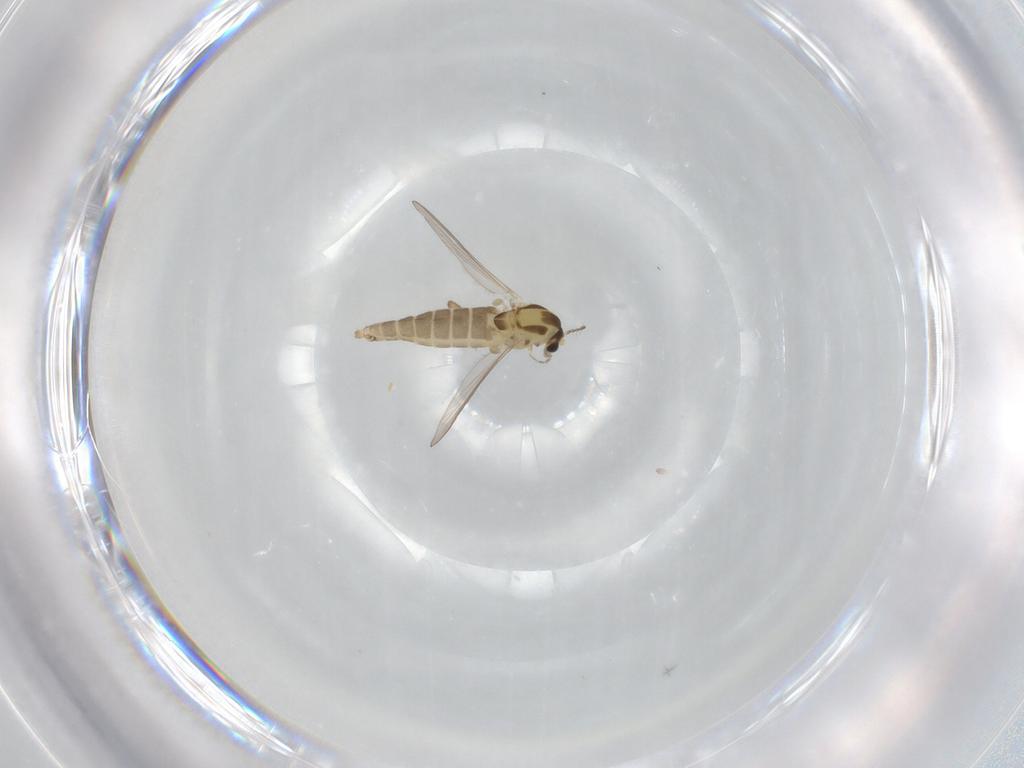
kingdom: Animalia
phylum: Arthropoda
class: Insecta
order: Diptera
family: Chironomidae
